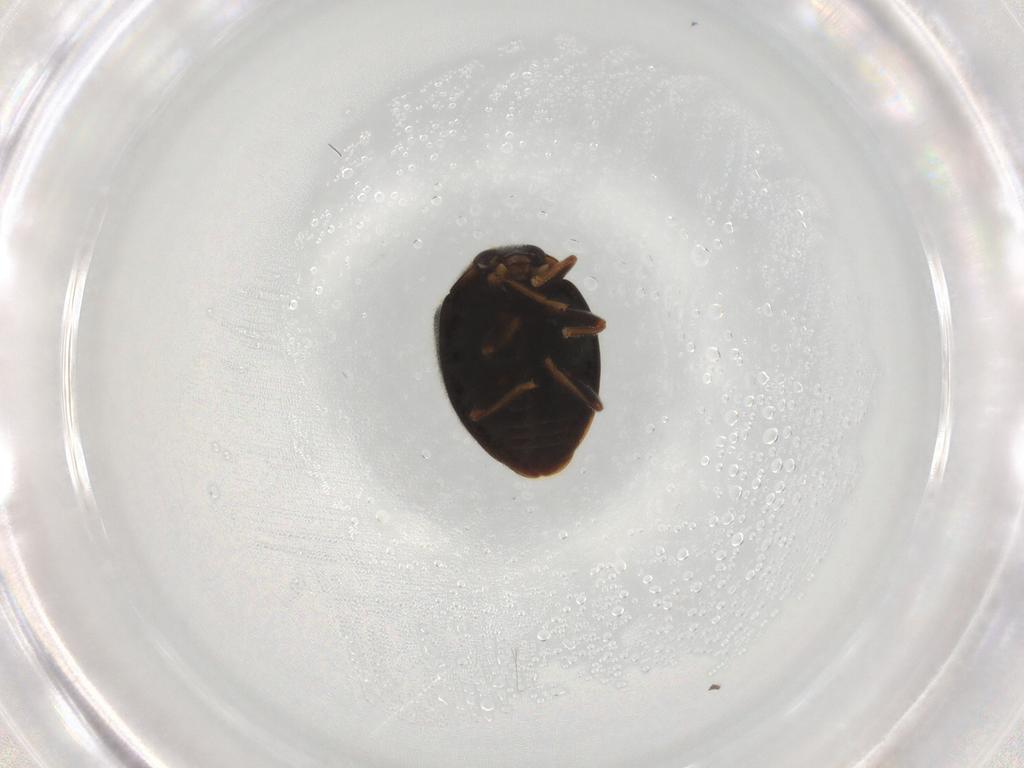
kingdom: Animalia
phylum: Arthropoda
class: Insecta
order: Coleoptera
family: Coccinellidae
